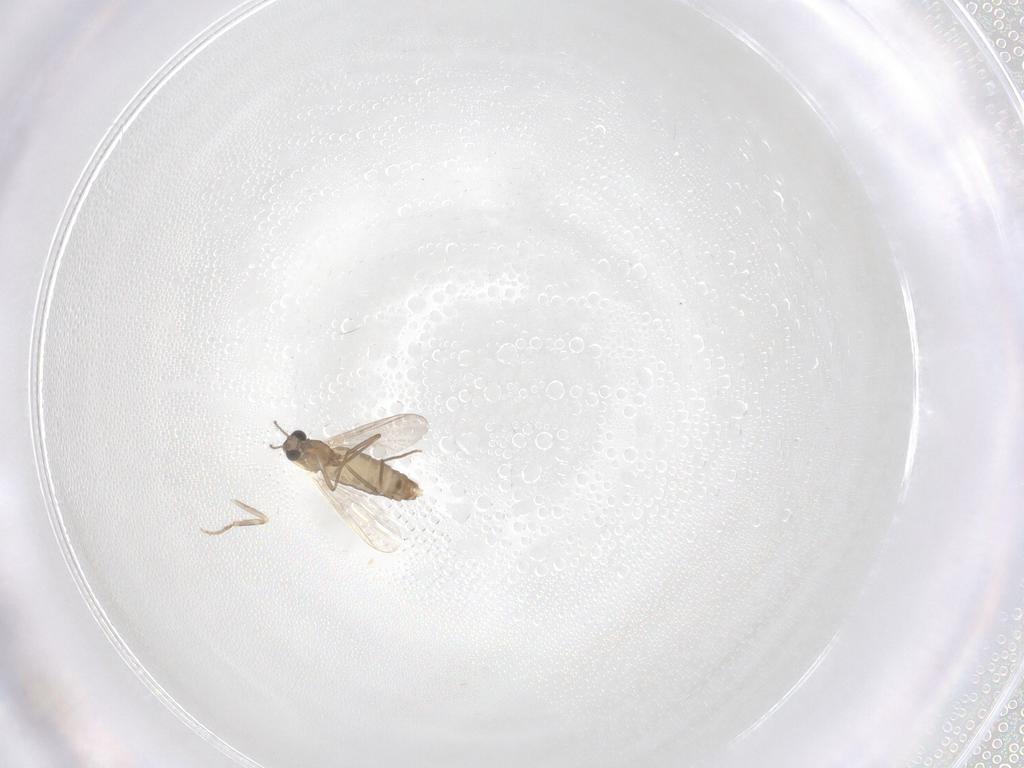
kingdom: Animalia
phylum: Arthropoda
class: Insecta
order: Diptera
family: Chironomidae
